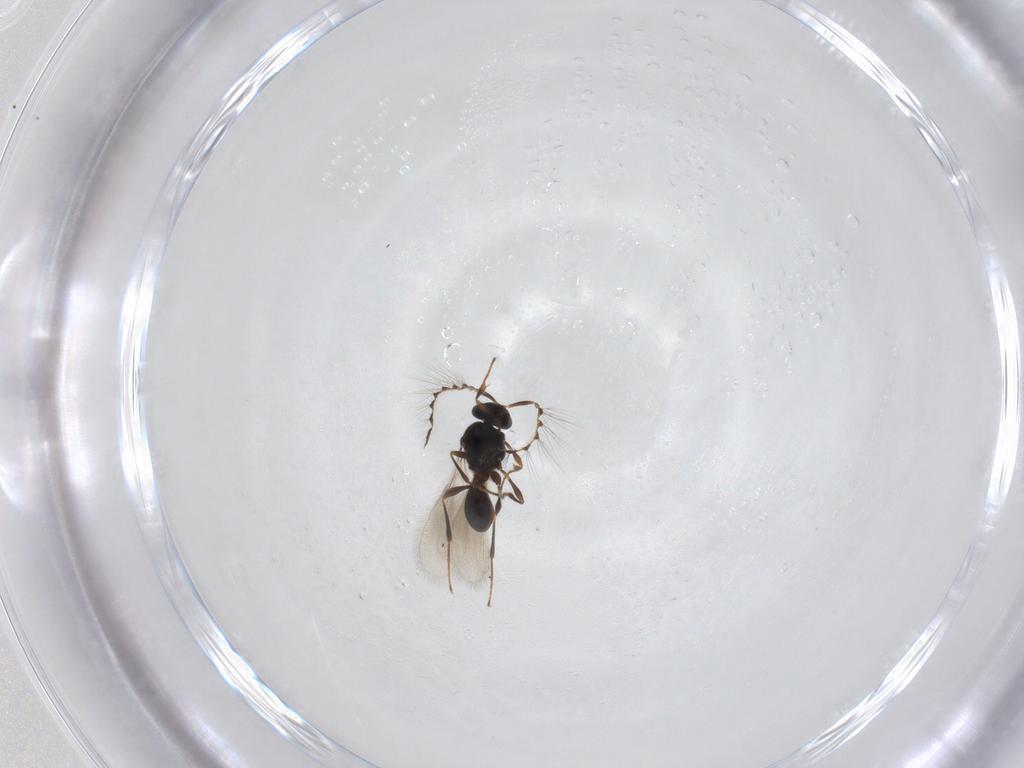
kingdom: Animalia
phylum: Arthropoda
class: Insecta
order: Hymenoptera
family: Platygastridae
